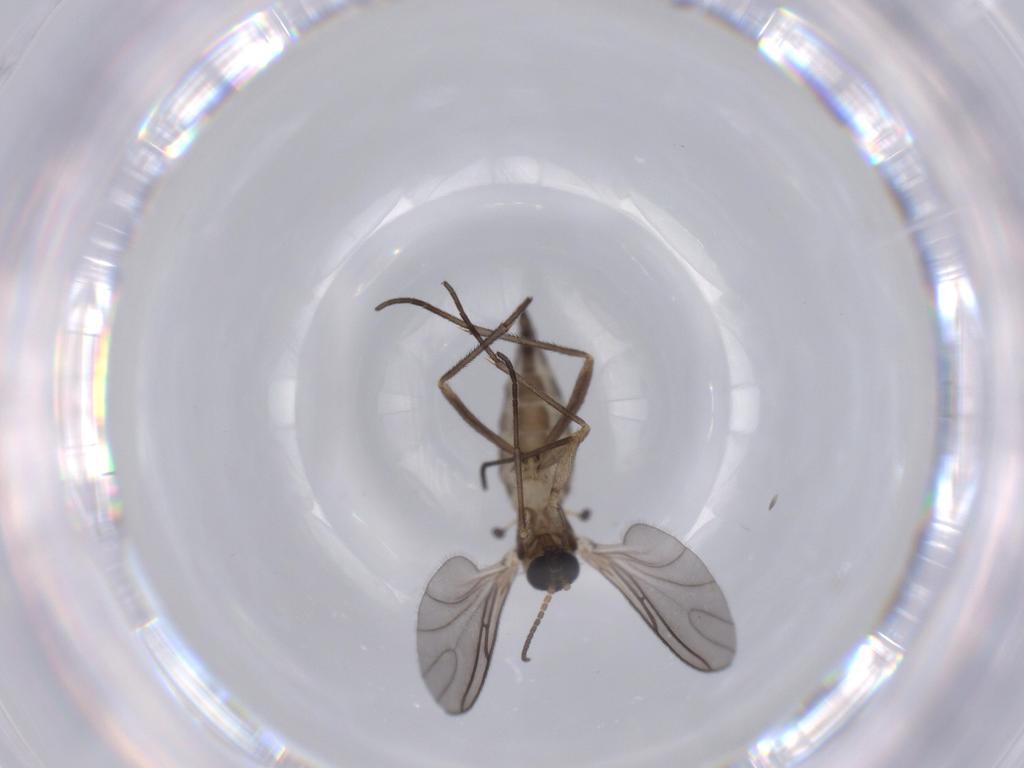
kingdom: Animalia
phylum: Arthropoda
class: Insecta
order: Diptera
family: Sciaridae
